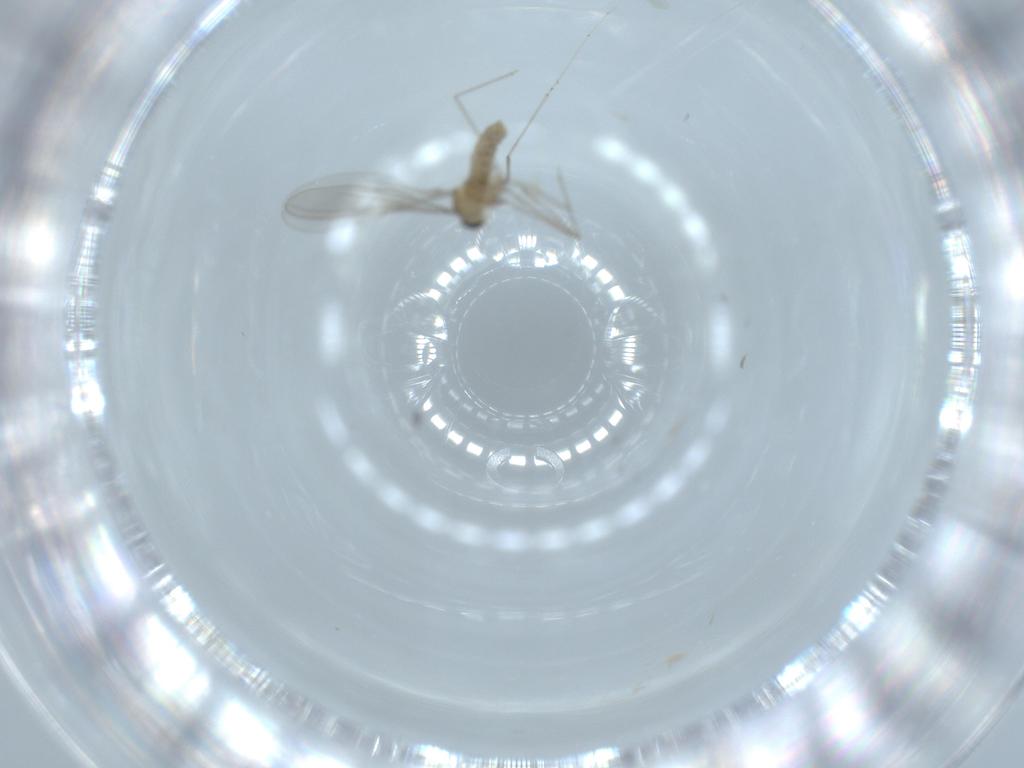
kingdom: Animalia
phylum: Arthropoda
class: Insecta
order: Diptera
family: Cecidomyiidae
